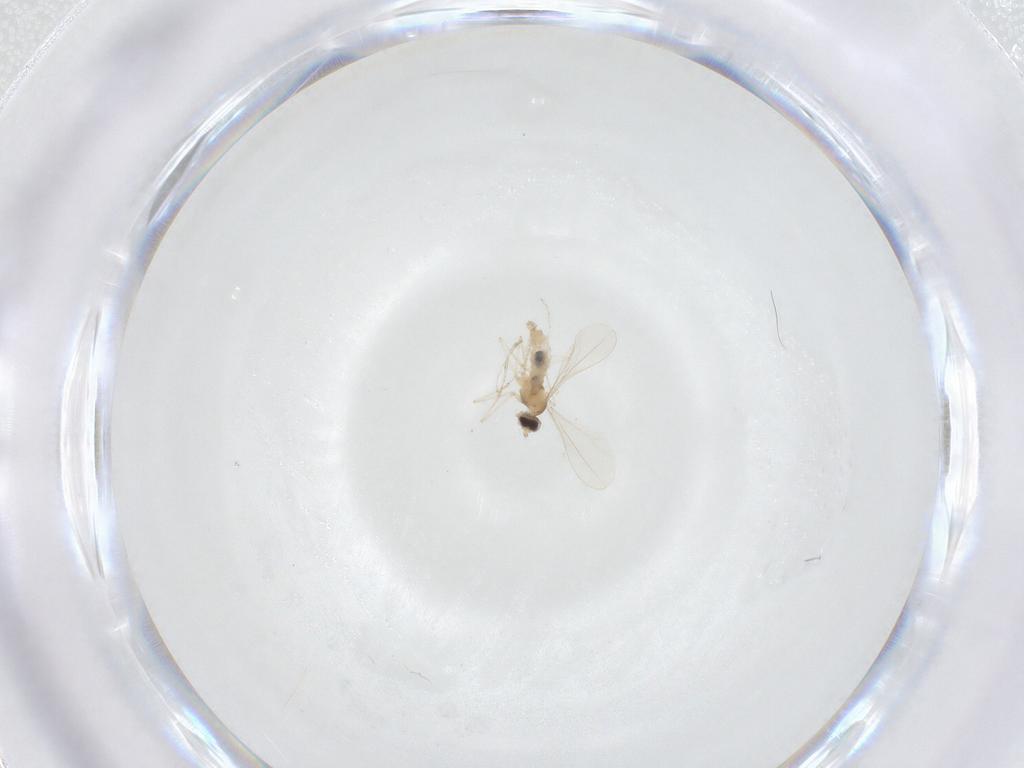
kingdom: Animalia
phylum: Arthropoda
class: Insecta
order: Diptera
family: Cecidomyiidae
